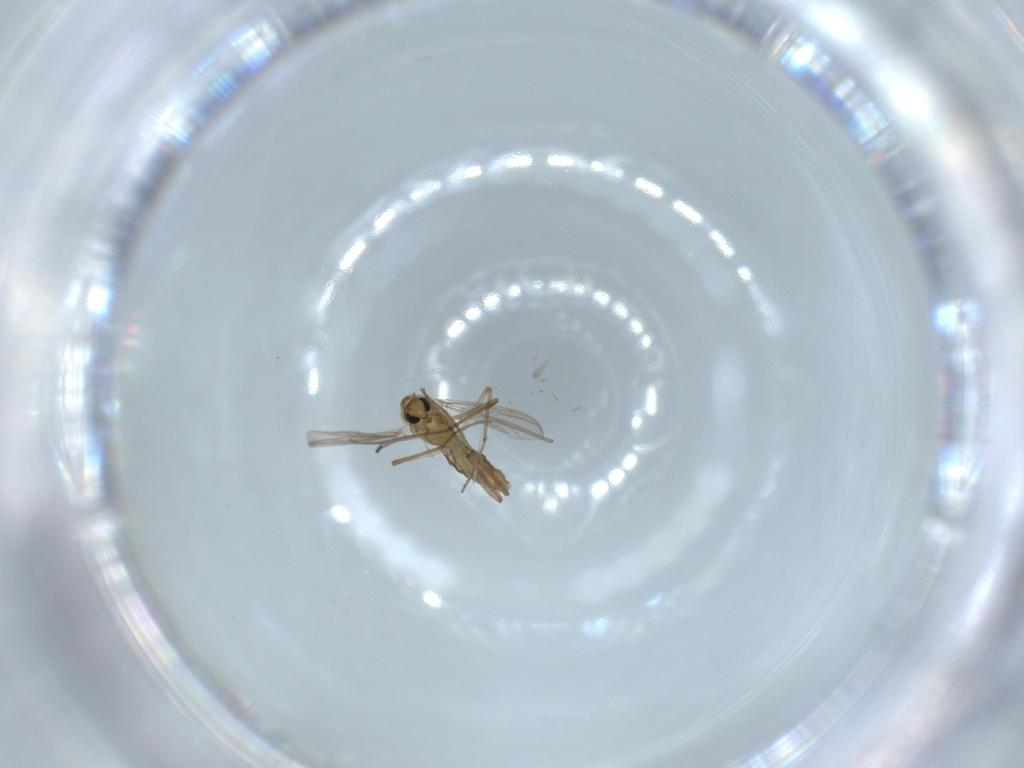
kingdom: Animalia
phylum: Arthropoda
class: Insecta
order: Diptera
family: Chironomidae
